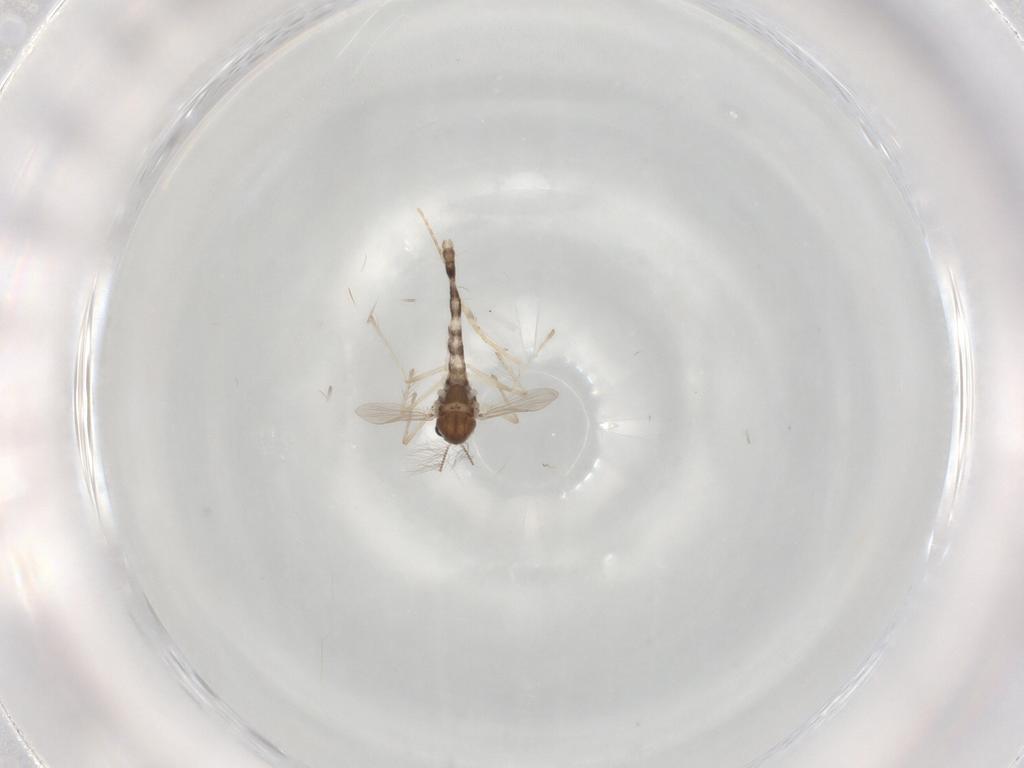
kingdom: Animalia
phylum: Arthropoda
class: Insecta
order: Diptera
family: Chironomidae
